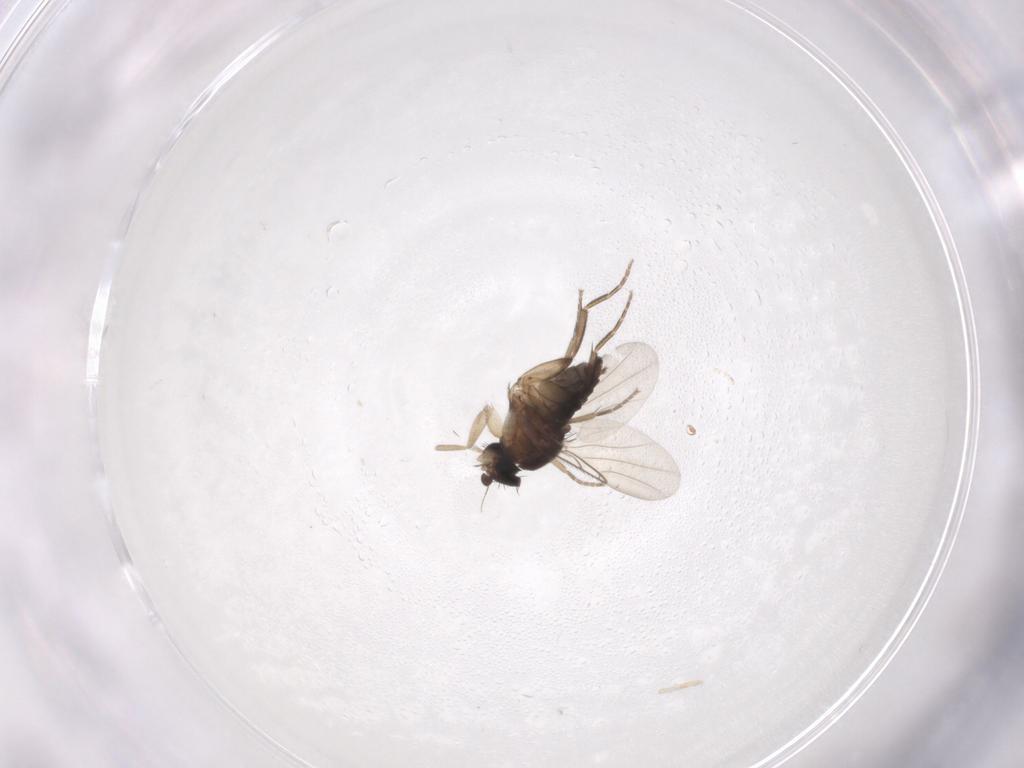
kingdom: Animalia
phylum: Arthropoda
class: Insecta
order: Diptera
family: Phoridae
